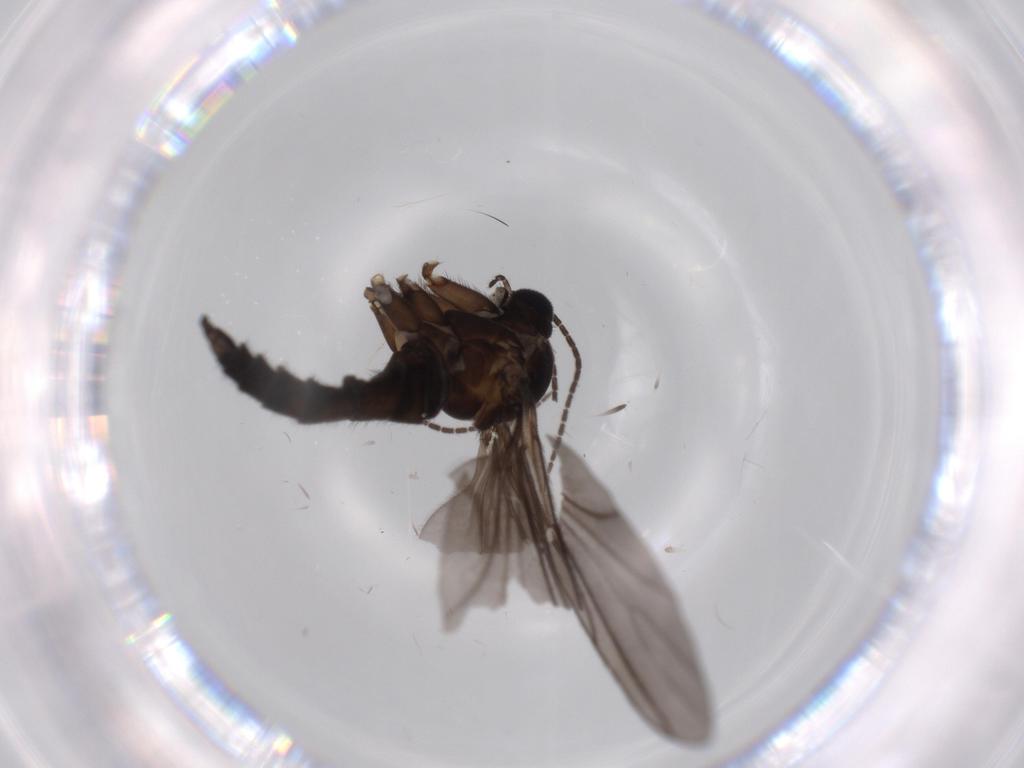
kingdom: Animalia
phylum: Arthropoda
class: Insecta
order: Diptera
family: Sciaridae
